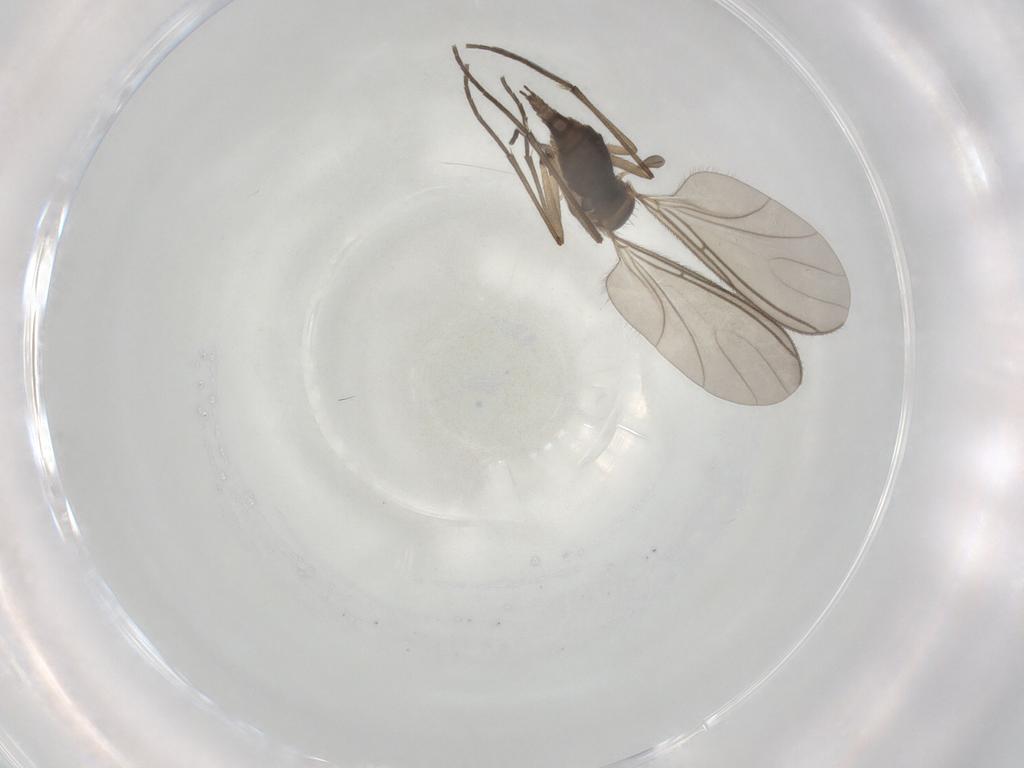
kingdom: Animalia
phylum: Arthropoda
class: Insecta
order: Diptera
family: Sciaridae
